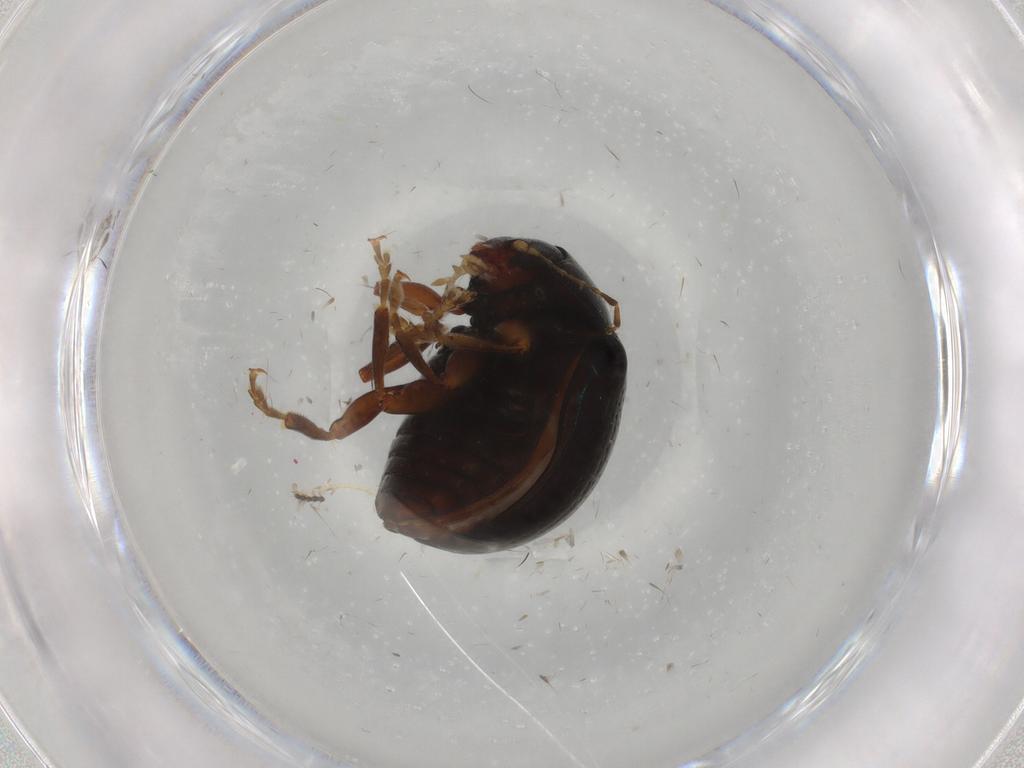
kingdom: Animalia
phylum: Arthropoda
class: Insecta
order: Coleoptera
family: Chrysomelidae
